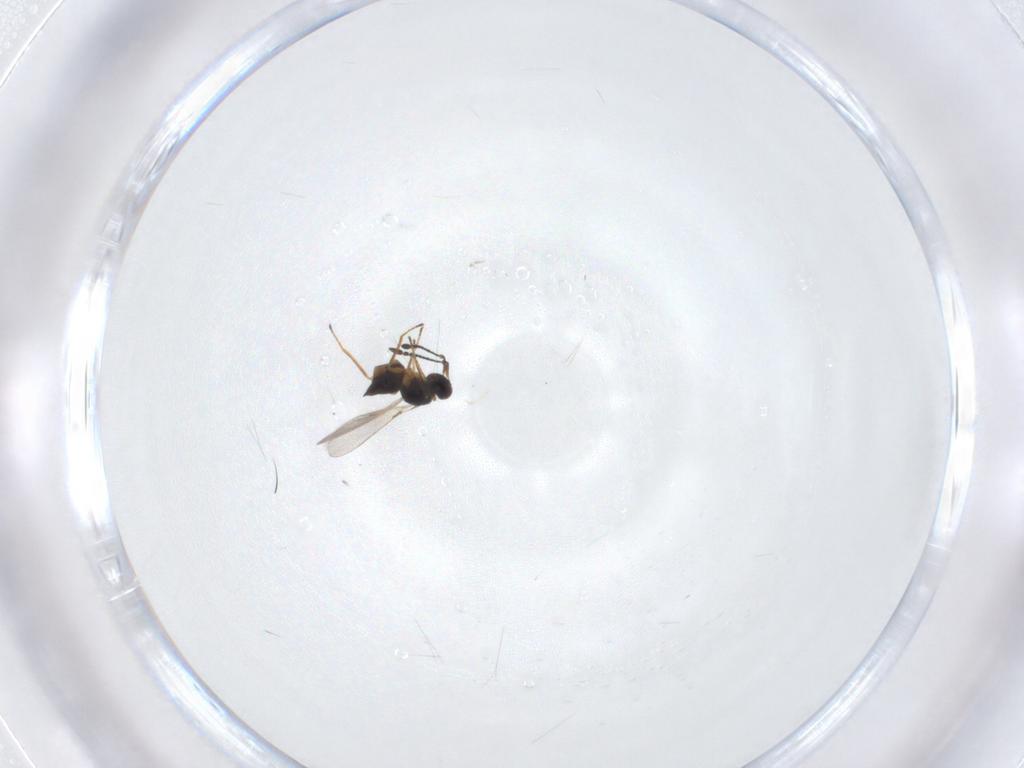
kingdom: Animalia
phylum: Arthropoda
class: Insecta
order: Hymenoptera
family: Mymaridae
